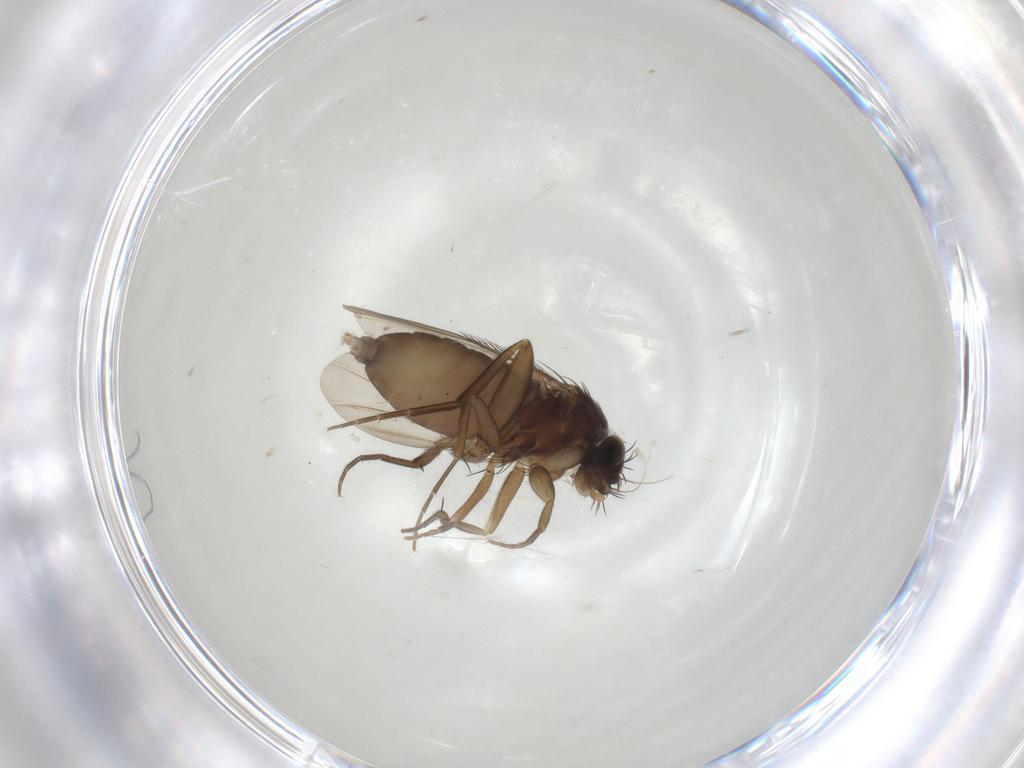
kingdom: Animalia
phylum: Arthropoda
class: Insecta
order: Diptera
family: Phoridae
